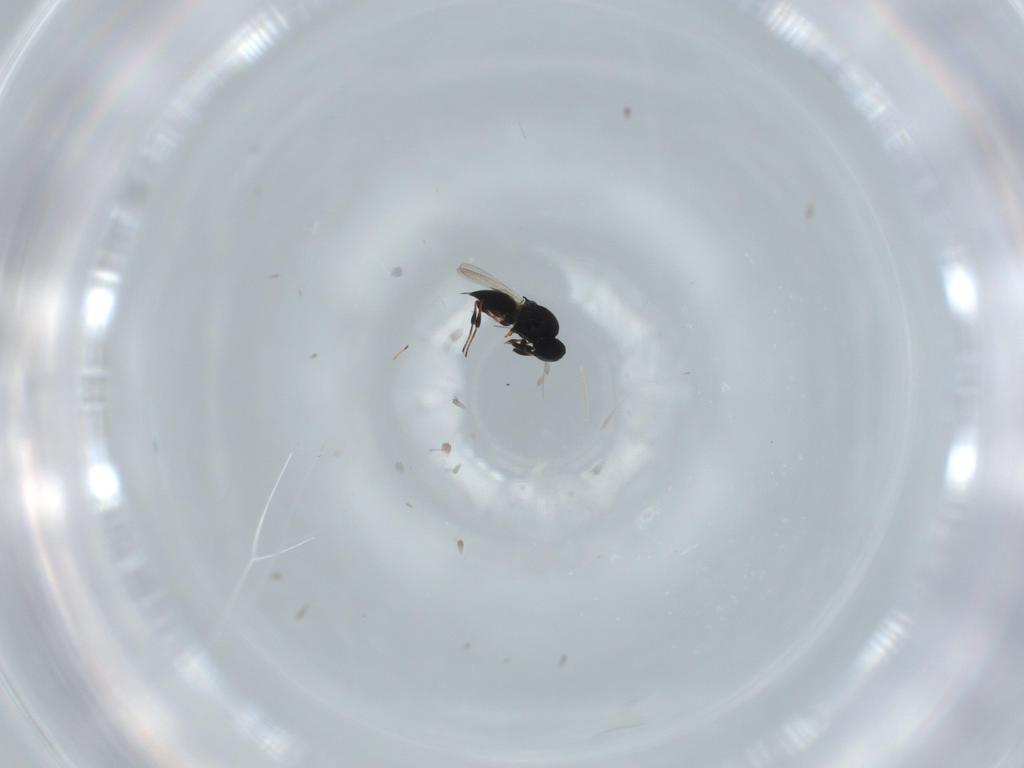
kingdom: Animalia
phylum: Arthropoda
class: Insecta
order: Hymenoptera
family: Platygastridae
